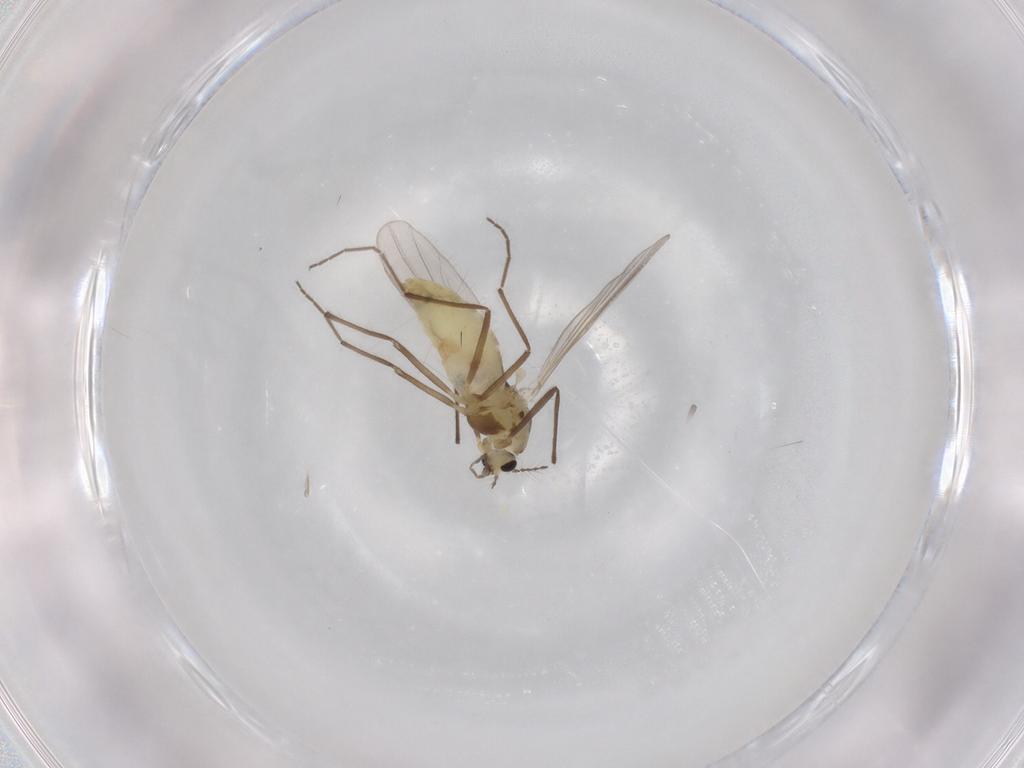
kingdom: Animalia
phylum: Arthropoda
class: Insecta
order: Diptera
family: Chironomidae
